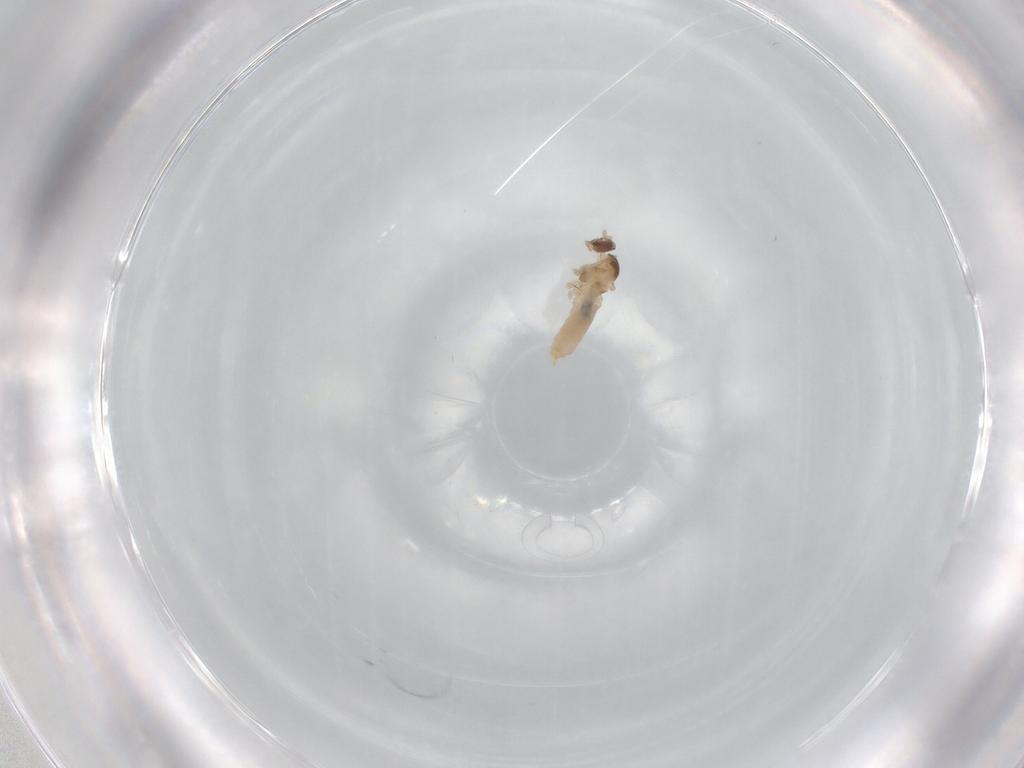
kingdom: Animalia
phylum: Arthropoda
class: Insecta
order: Diptera
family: Cecidomyiidae
